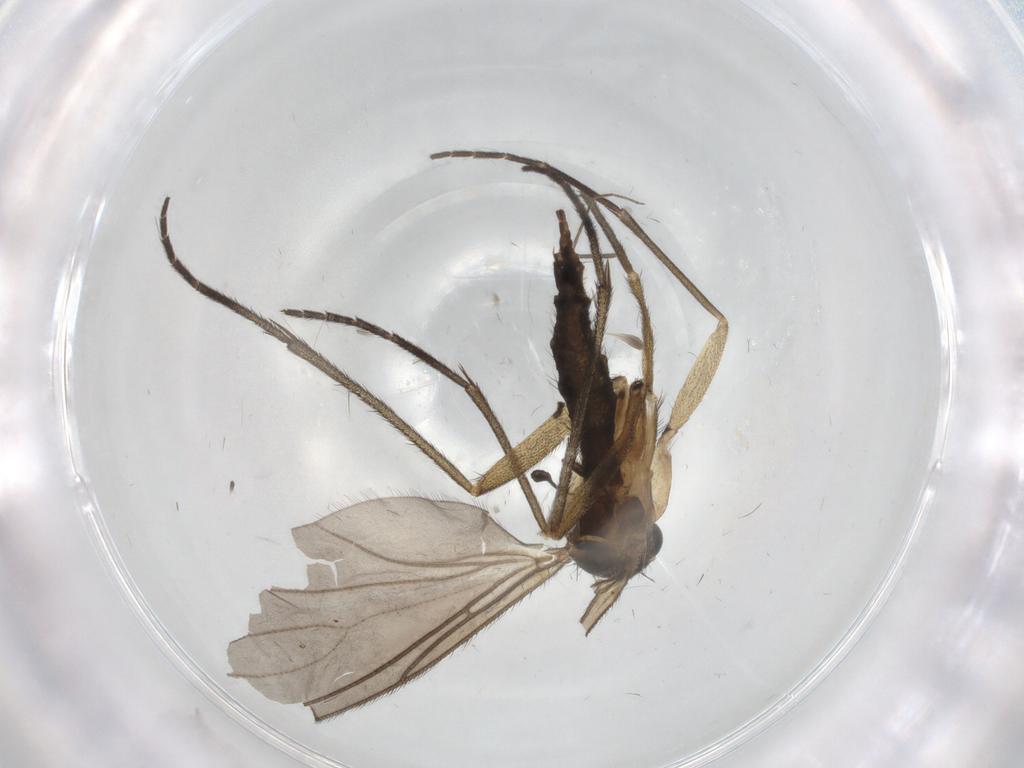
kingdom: Animalia
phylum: Arthropoda
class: Insecta
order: Diptera
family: Sciaridae
